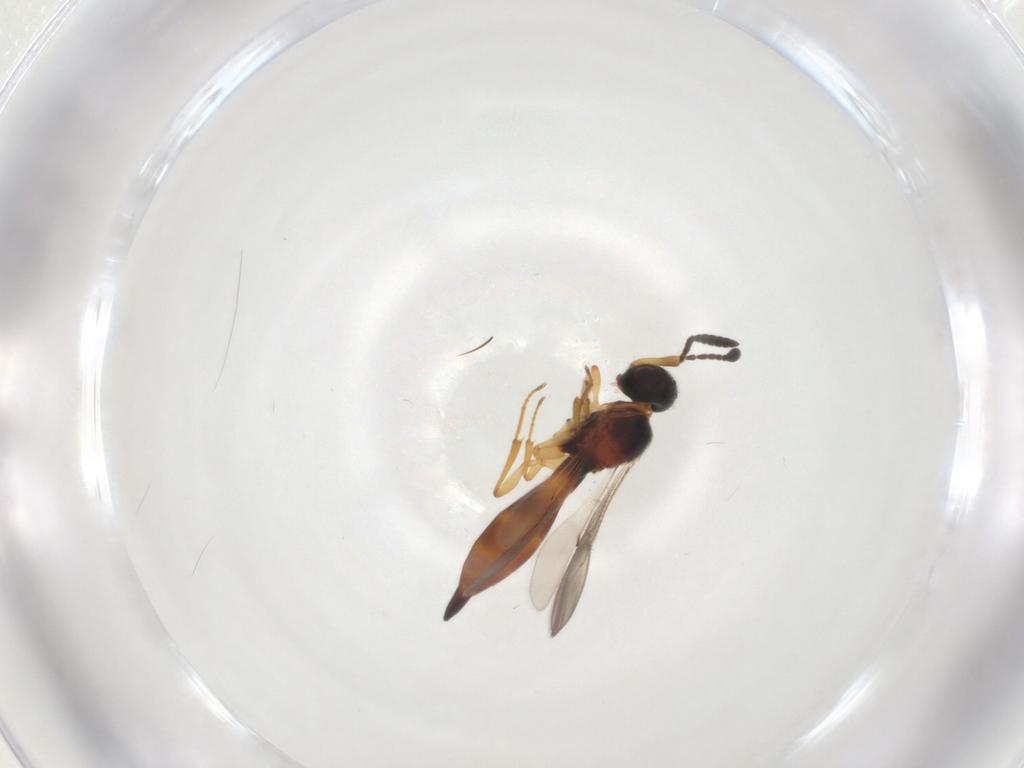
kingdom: Animalia
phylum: Arthropoda
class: Insecta
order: Hymenoptera
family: Scelionidae
